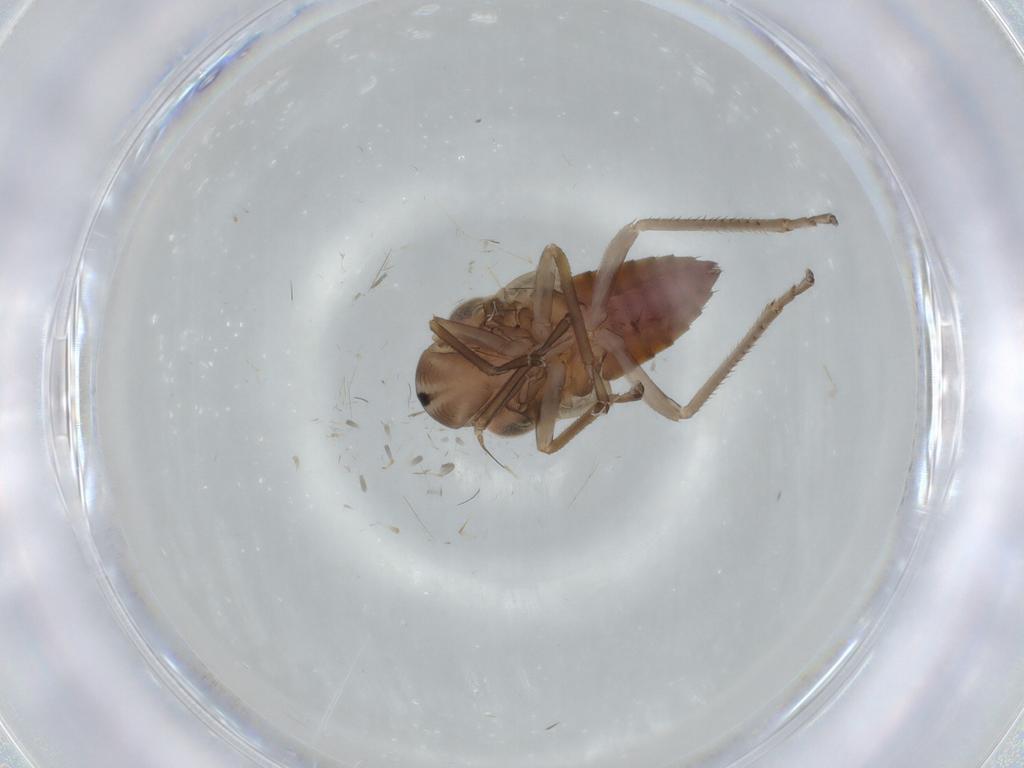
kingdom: Animalia
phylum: Arthropoda
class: Insecta
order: Hemiptera
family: Cicadellidae
